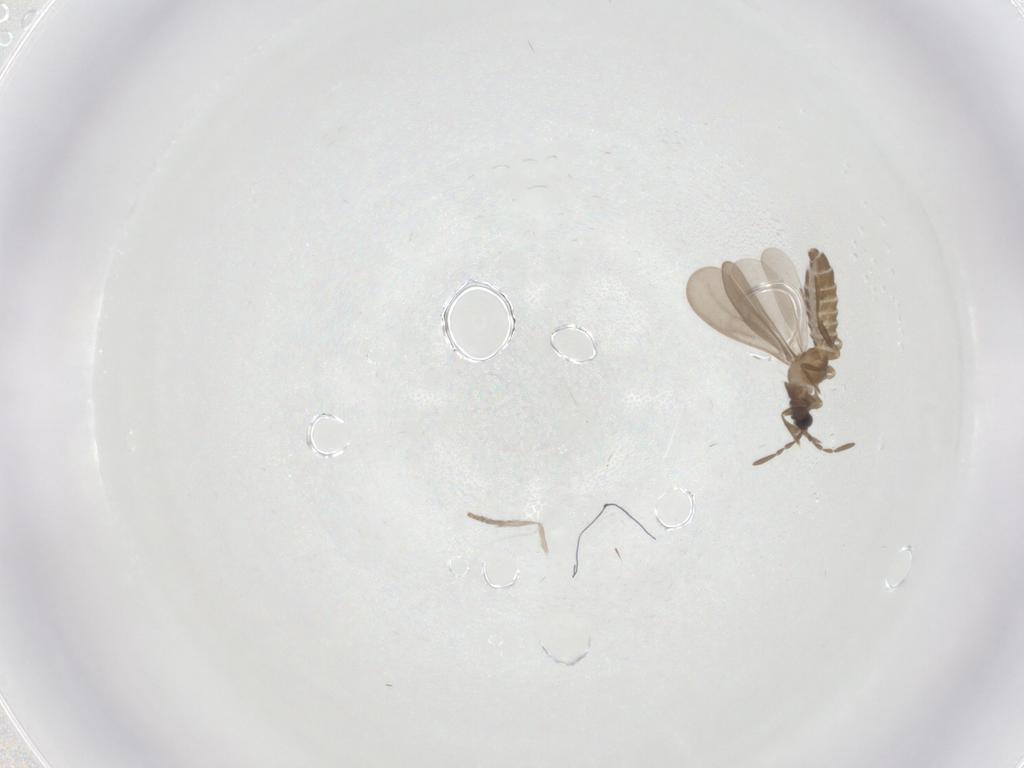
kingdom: Animalia
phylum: Arthropoda
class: Insecta
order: Hemiptera
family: Enicocephalidae
